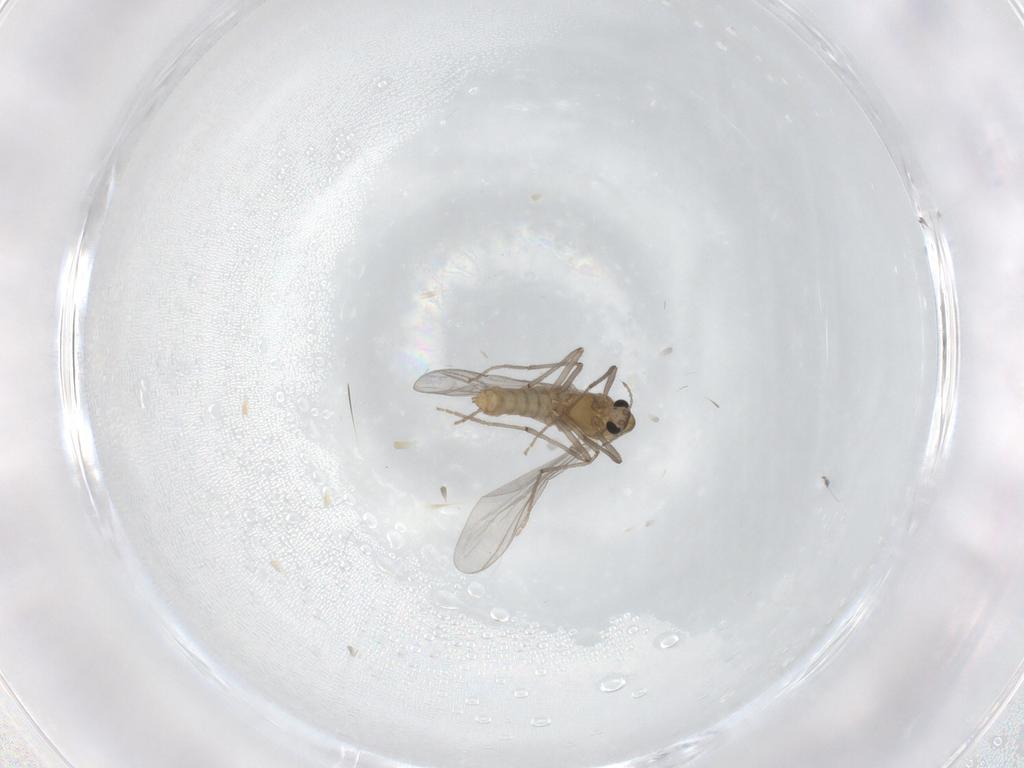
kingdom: Animalia
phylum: Arthropoda
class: Insecta
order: Diptera
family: Chironomidae
